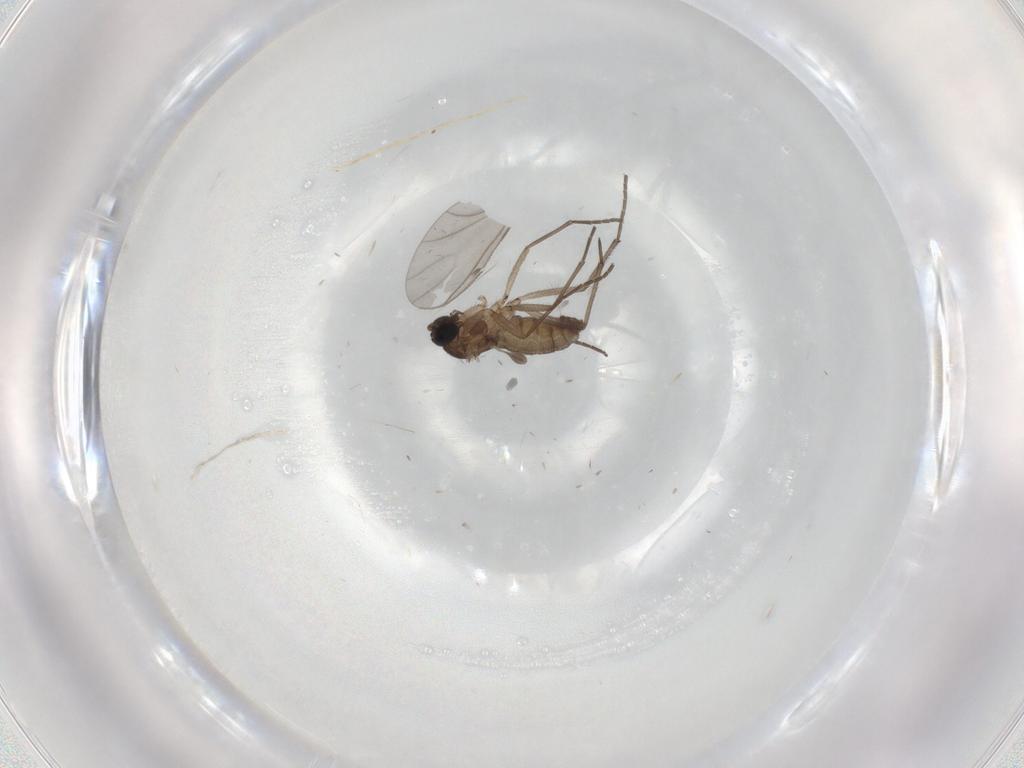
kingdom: Animalia
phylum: Arthropoda
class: Insecta
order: Diptera
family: Sciaridae
